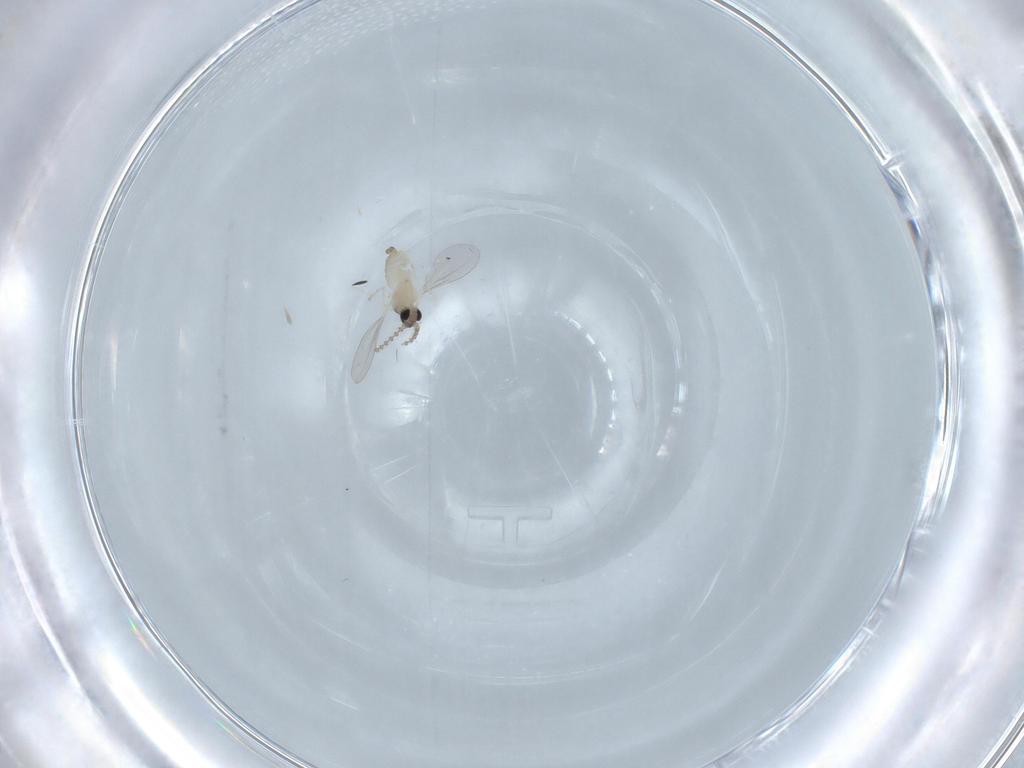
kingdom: Animalia
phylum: Arthropoda
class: Insecta
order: Diptera
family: Cecidomyiidae
